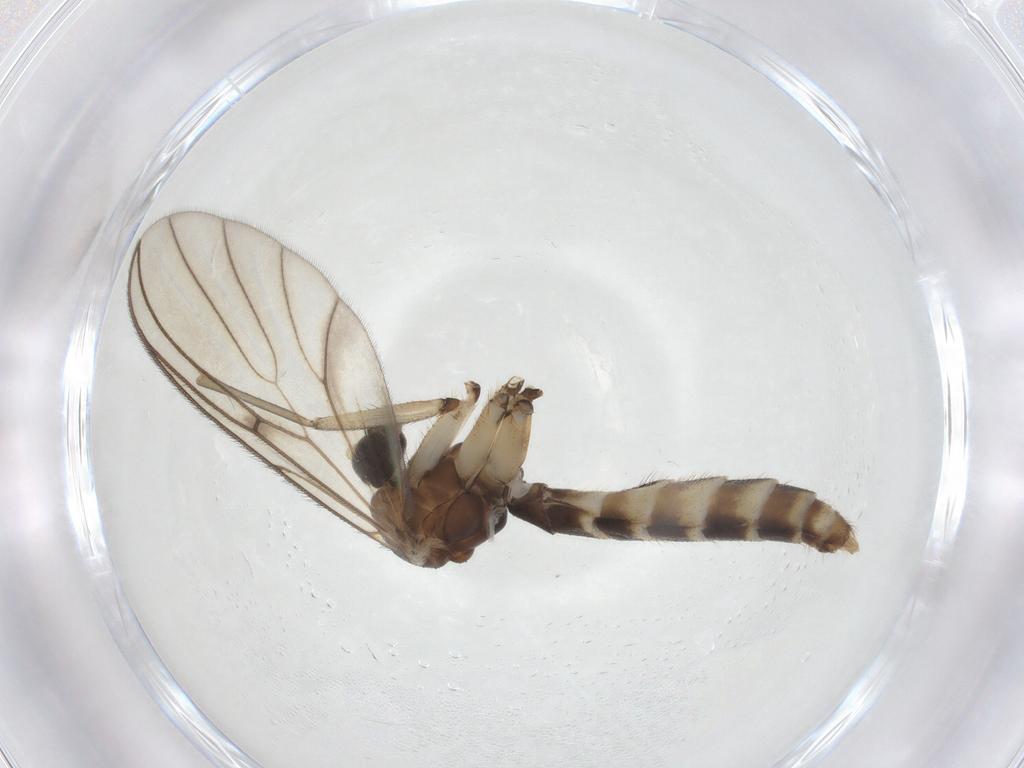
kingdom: Animalia
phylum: Arthropoda
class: Insecta
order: Diptera
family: Mycetophilidae
